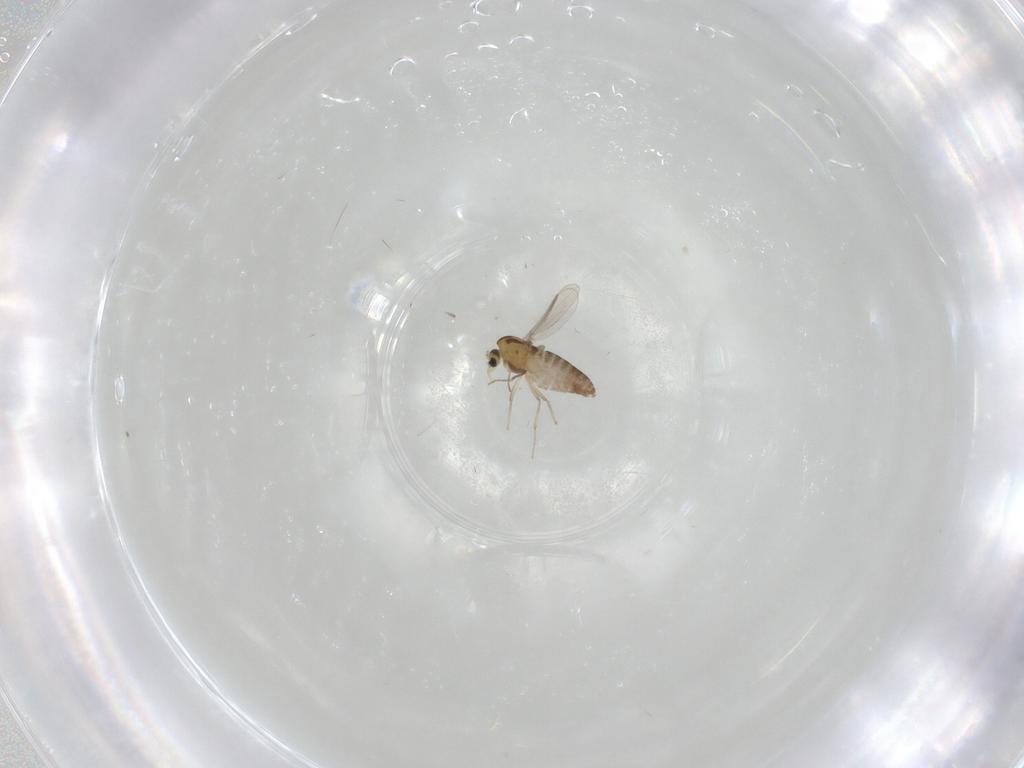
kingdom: Animalia
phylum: Arthropoda
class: Insecta
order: Diptera
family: Chironomidae
